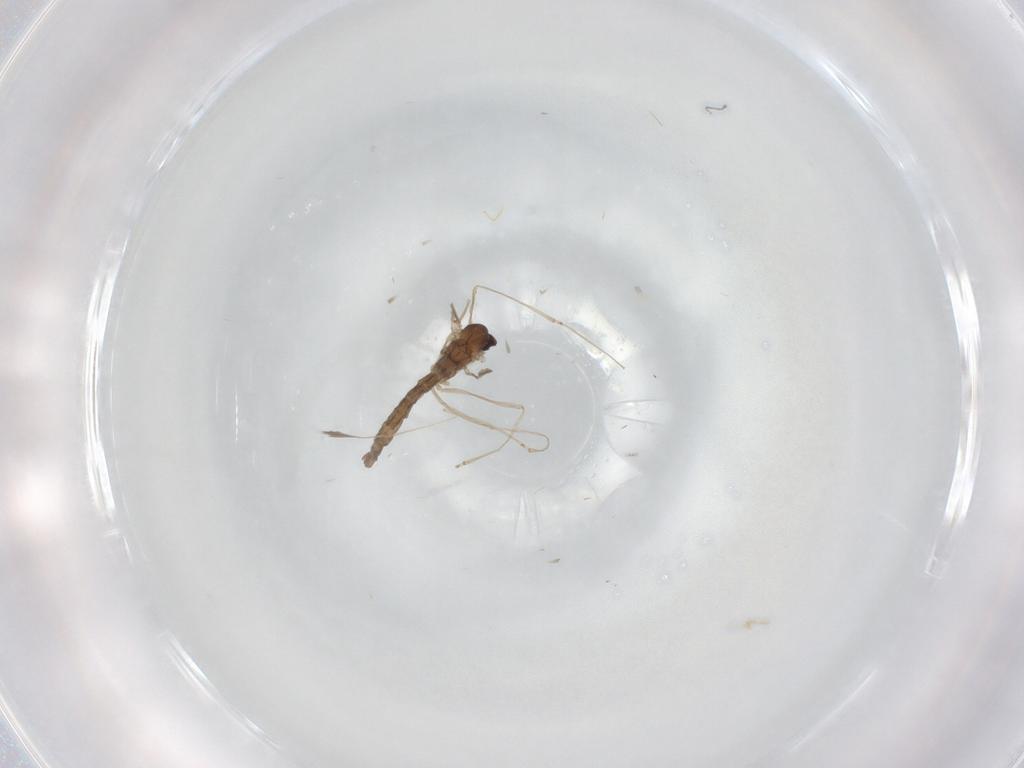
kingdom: Animalia
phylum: Arthropoda
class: Insecta
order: Diptera
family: Cecidomyiidae
